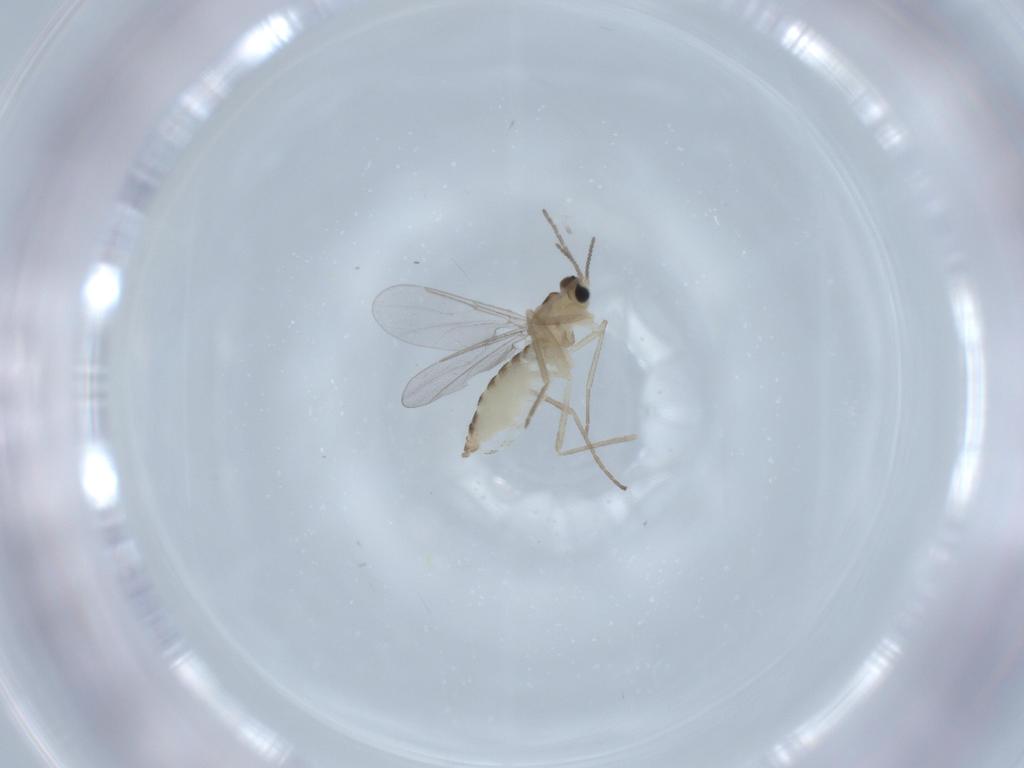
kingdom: Animalia
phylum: Arthropoda
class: Insecta
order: Diptera
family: Cecidomyiidae
